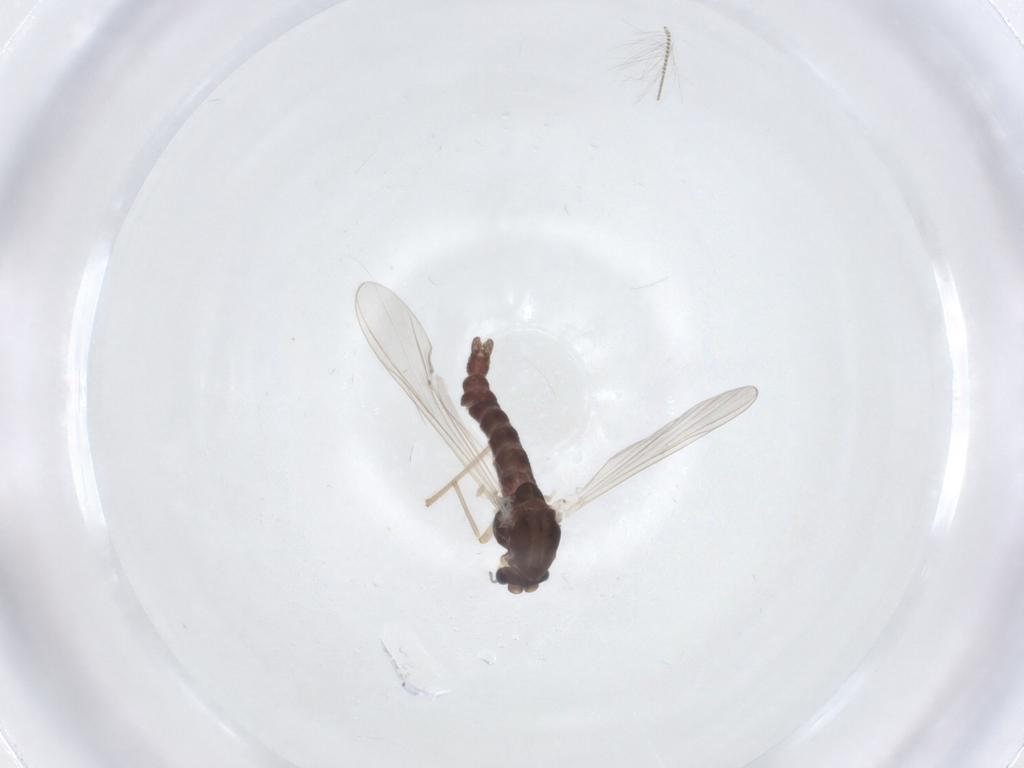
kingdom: Animalia
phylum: Arthropoda
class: Insecta
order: Diptera
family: Chironomidae
